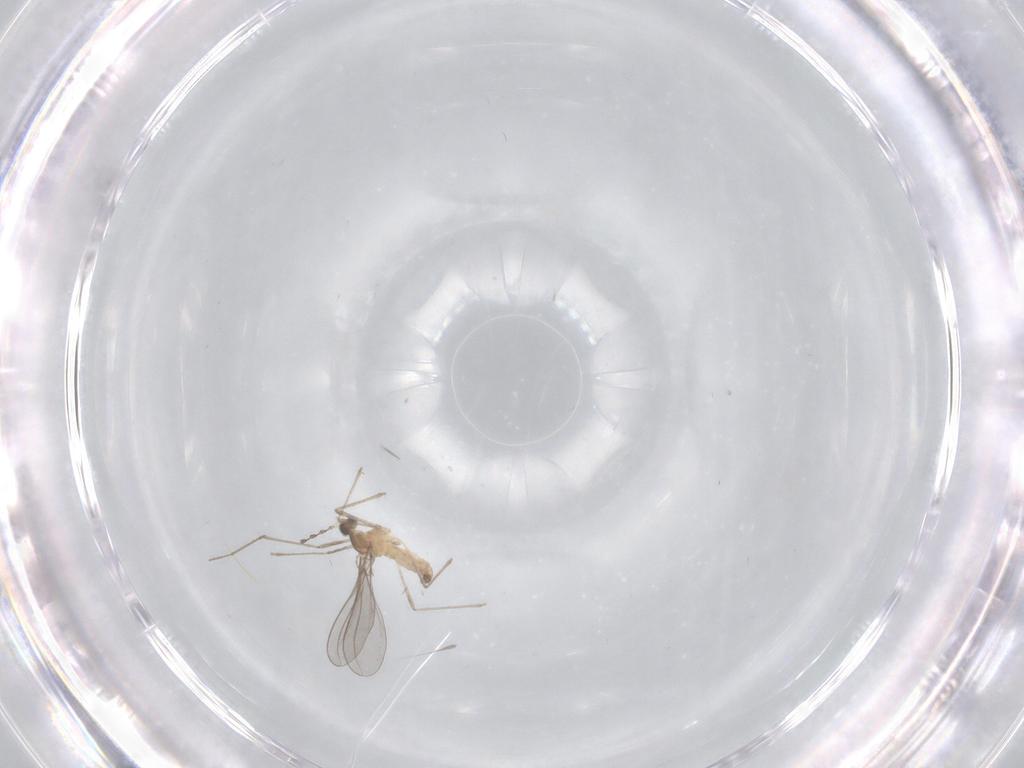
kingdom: Animalia
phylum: Arthropoda
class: Insecta
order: Diptera
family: Cecidomyiidae
